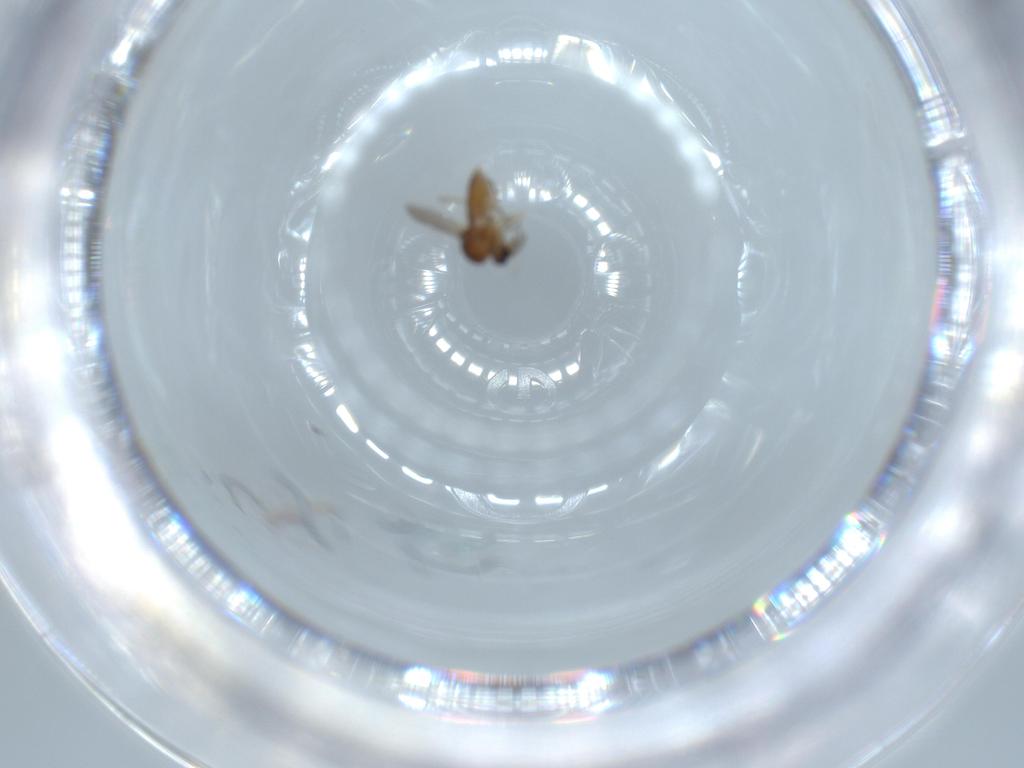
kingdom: Animalia
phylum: Arthropoda
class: Insecta
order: Diptera
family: Ceratopogonidae
